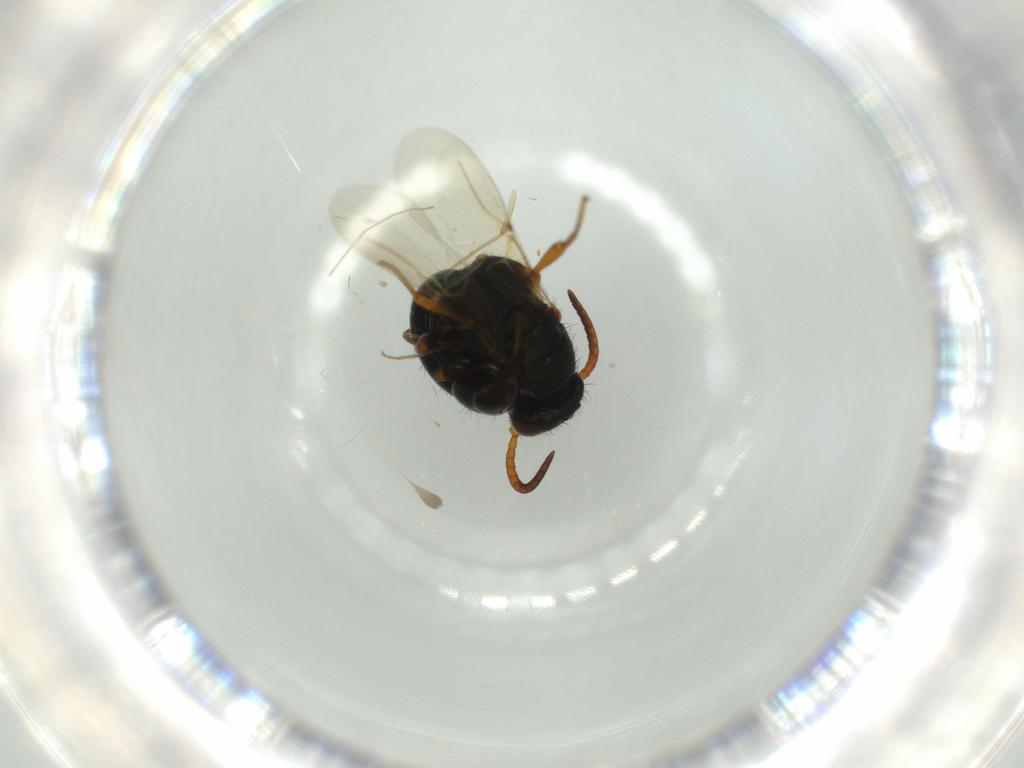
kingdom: Animalia
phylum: Arthropoda
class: Insecta
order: Hymenoptera
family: Bethylidae
